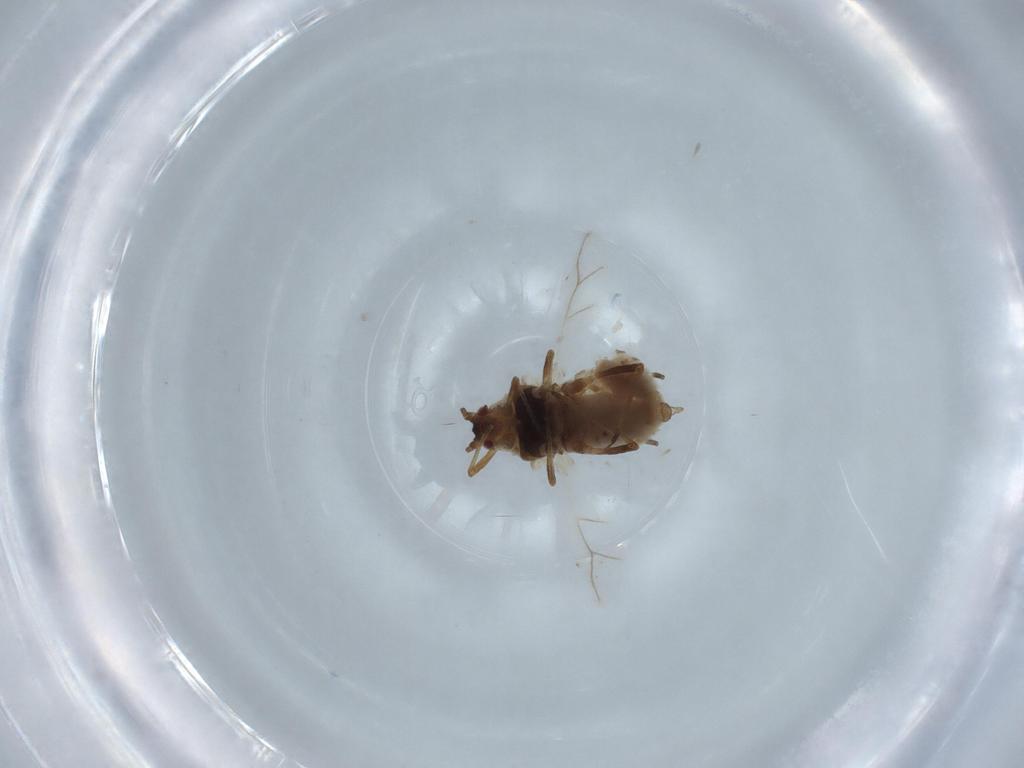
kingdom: Animalia
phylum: Arthropoda
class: Insecta
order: Hemiptera
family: Aphididae
